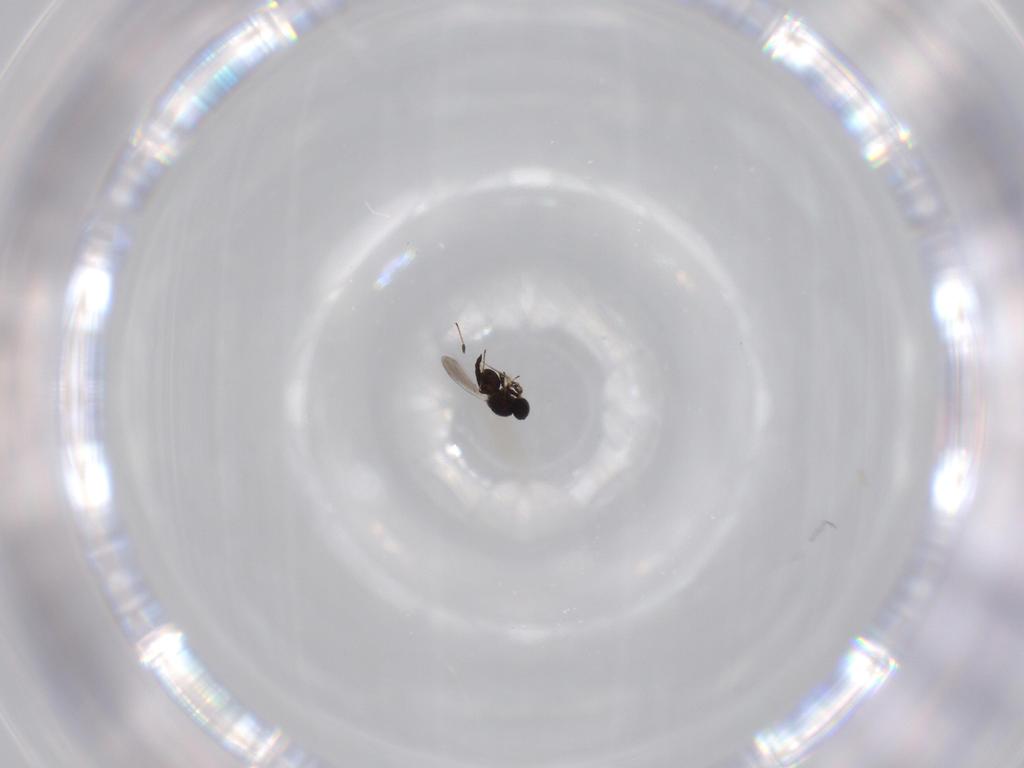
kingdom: Animalia
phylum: Arthropoda
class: Insecta
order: Hymenoptera
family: Platygastridae
